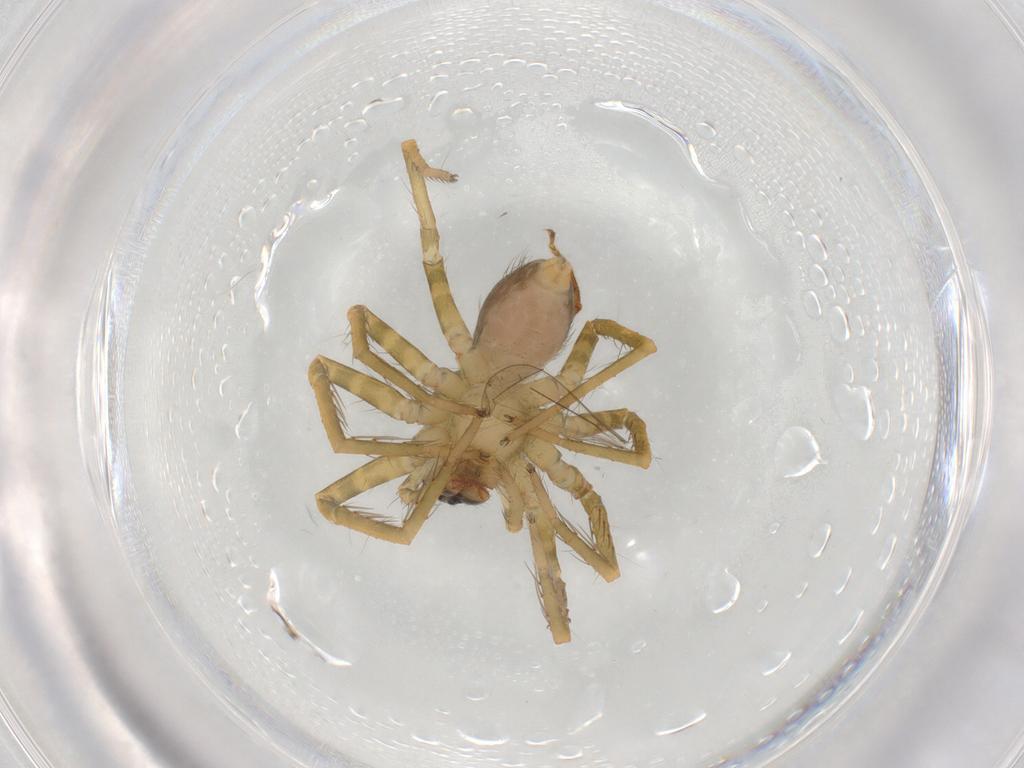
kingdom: Animalia
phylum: Arthropoda
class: Arachnida
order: Araneae
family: Ctenidae
